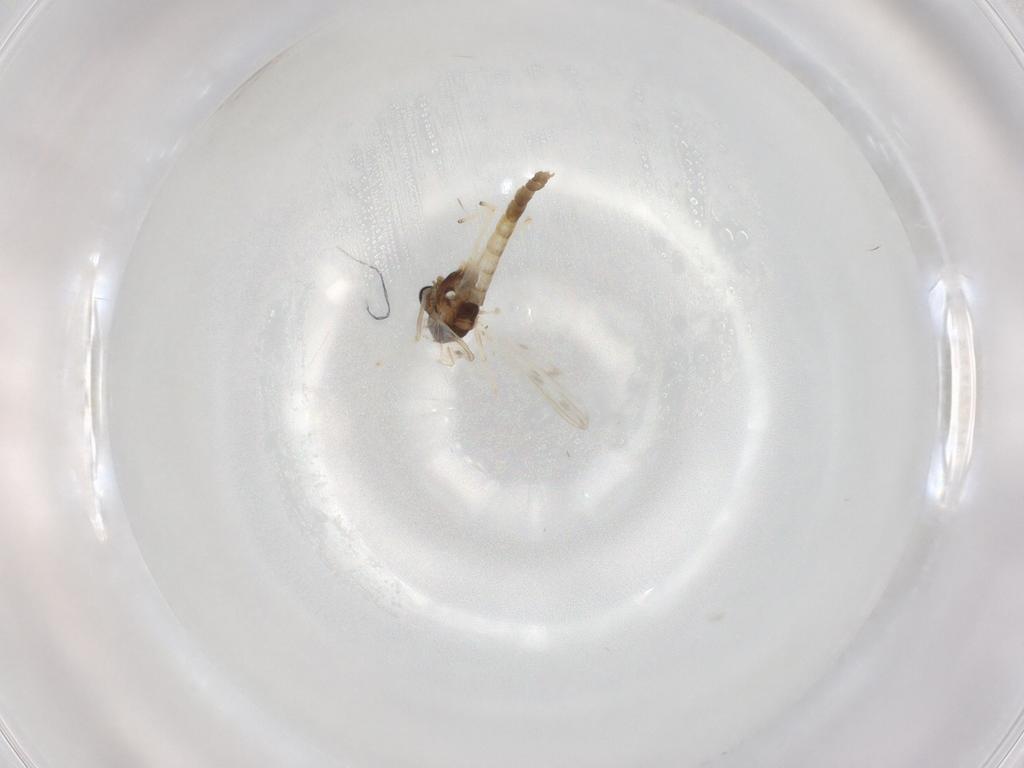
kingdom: Animalia
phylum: Arthropoda
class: Insecta
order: Diptera
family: Chironomidae
